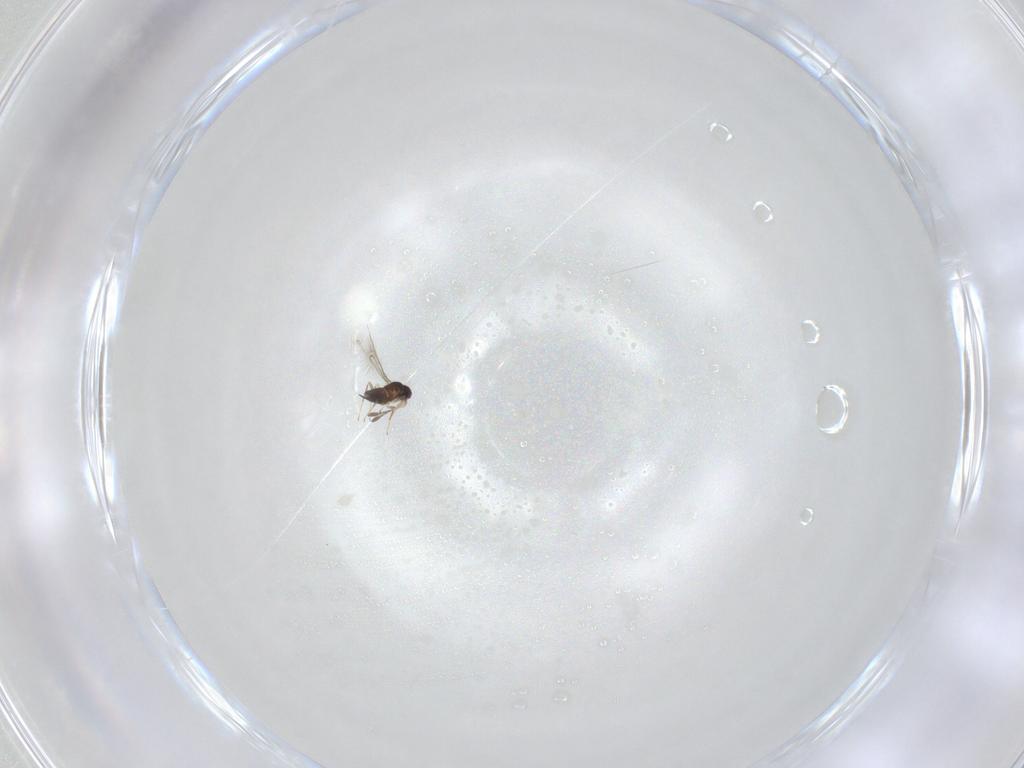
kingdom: Animalia
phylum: Arthropoda
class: Insecta
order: Hymenoptera
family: Mymaridae
